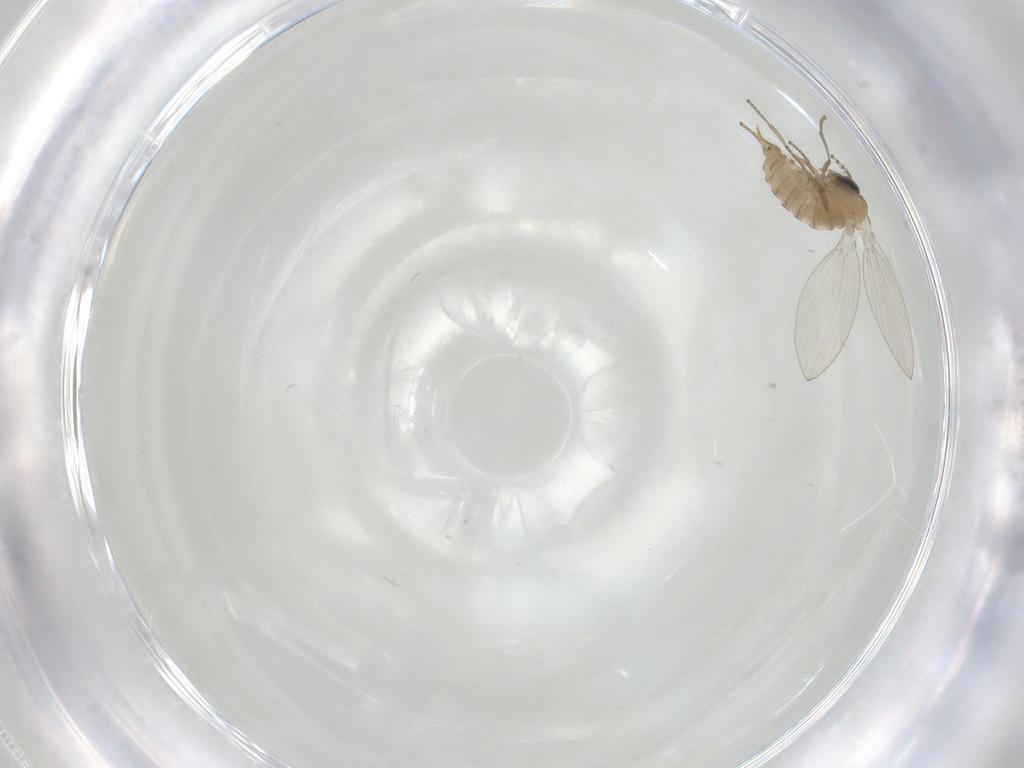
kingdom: Animalia
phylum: Arthropoda
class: Insecta
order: Diptera
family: Psychodidae
